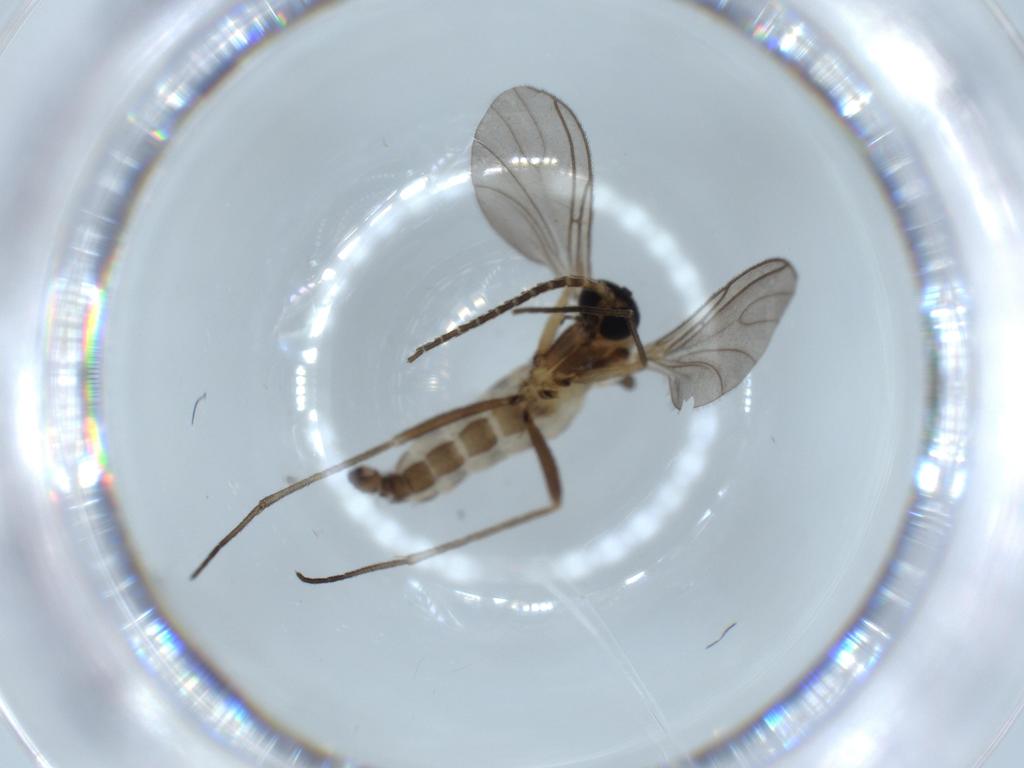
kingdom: Animalia
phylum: Arthropoda
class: Insecta
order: Diptera
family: Sciaridae
